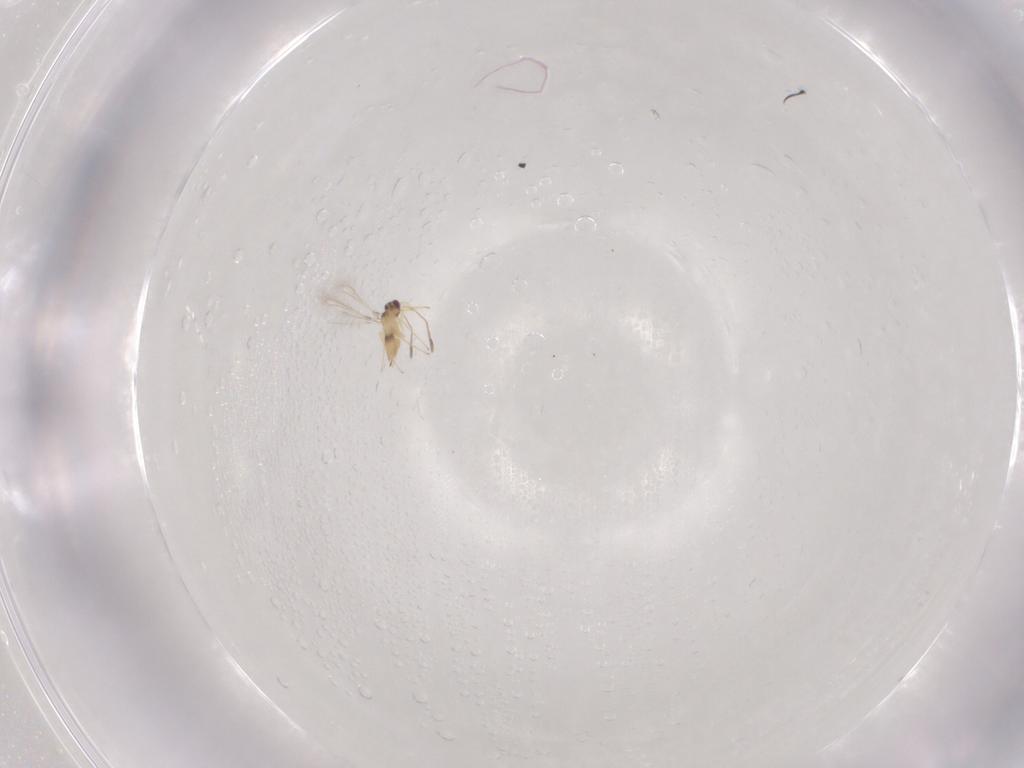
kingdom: Animalia
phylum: Arthropoda
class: Insecta
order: Hymenoptera
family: Mymaridae
